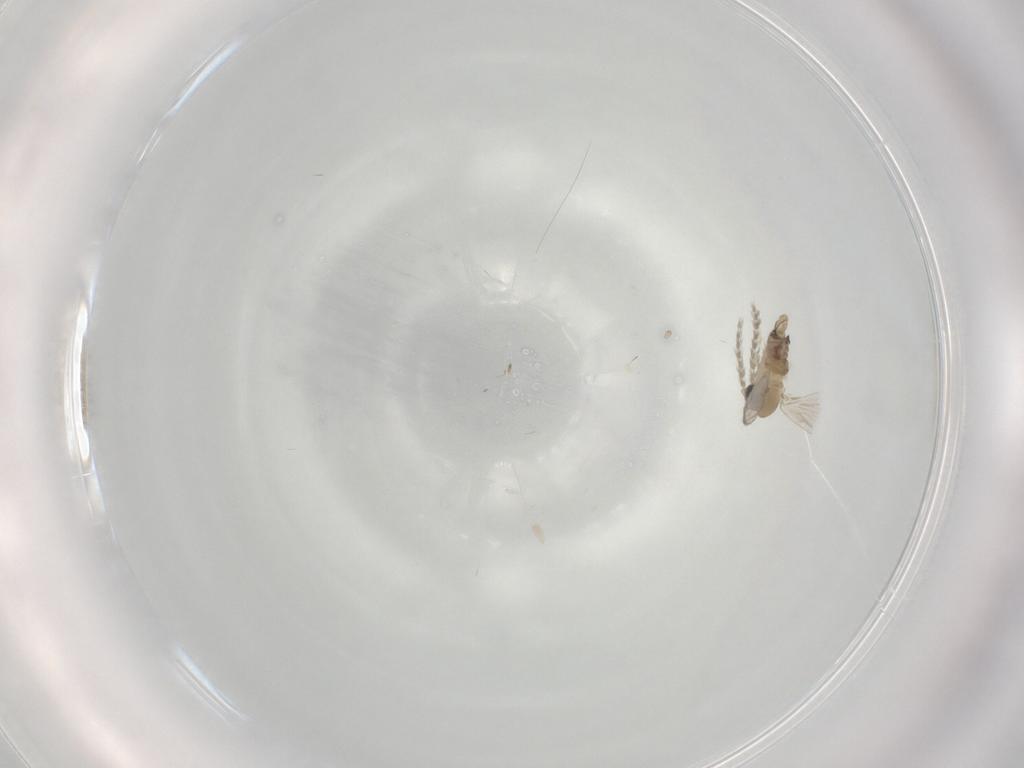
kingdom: Animalia
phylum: Arthropoda
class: Insecta
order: Diptera
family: Psychodidae
